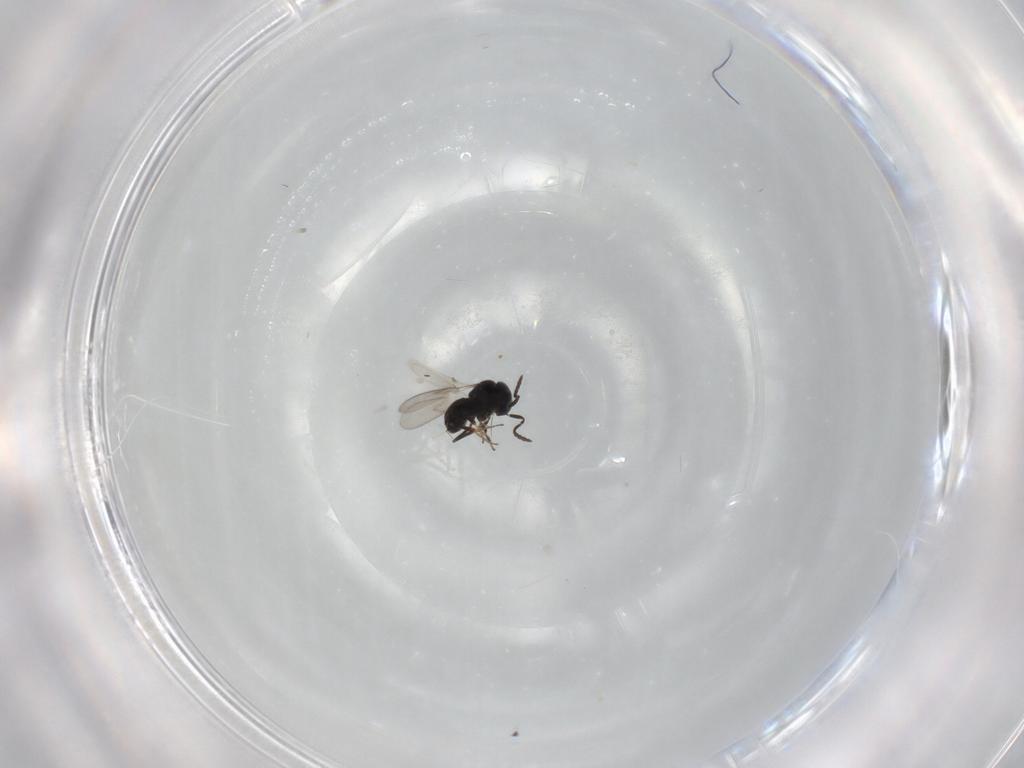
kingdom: Animalia
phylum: Arthropoda
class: Insecta
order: Hymenoptera
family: Scelionidae
